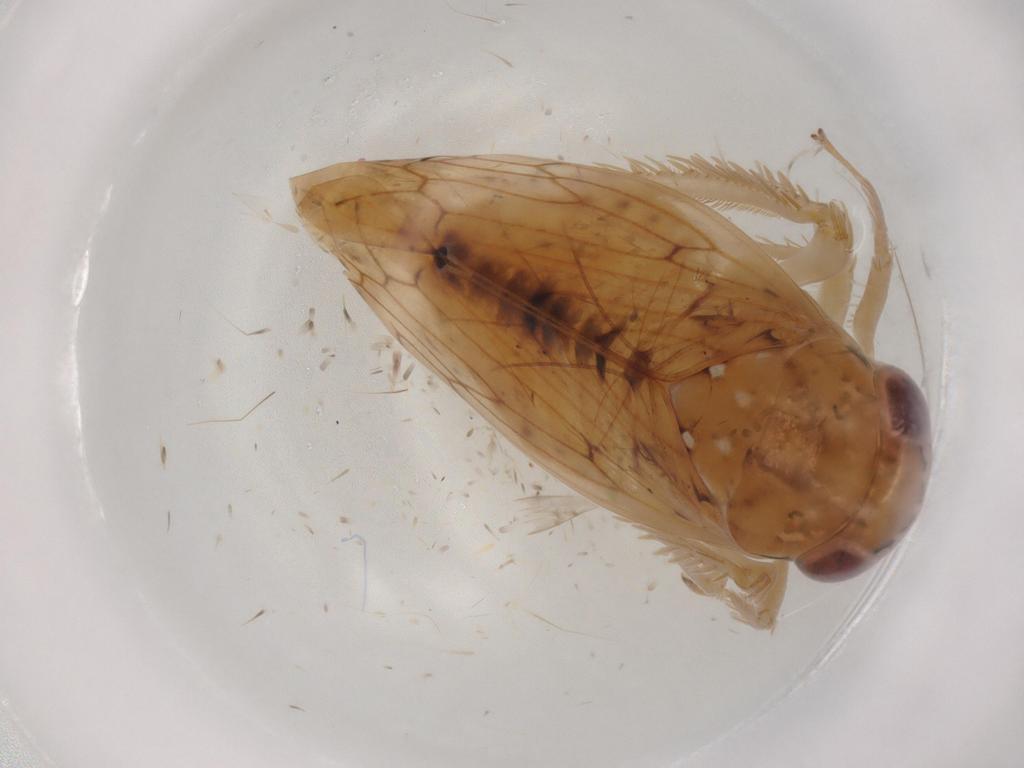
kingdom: Animalia
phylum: Arthropoda
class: Insecta
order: Hemiptera
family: Cicadellidae
